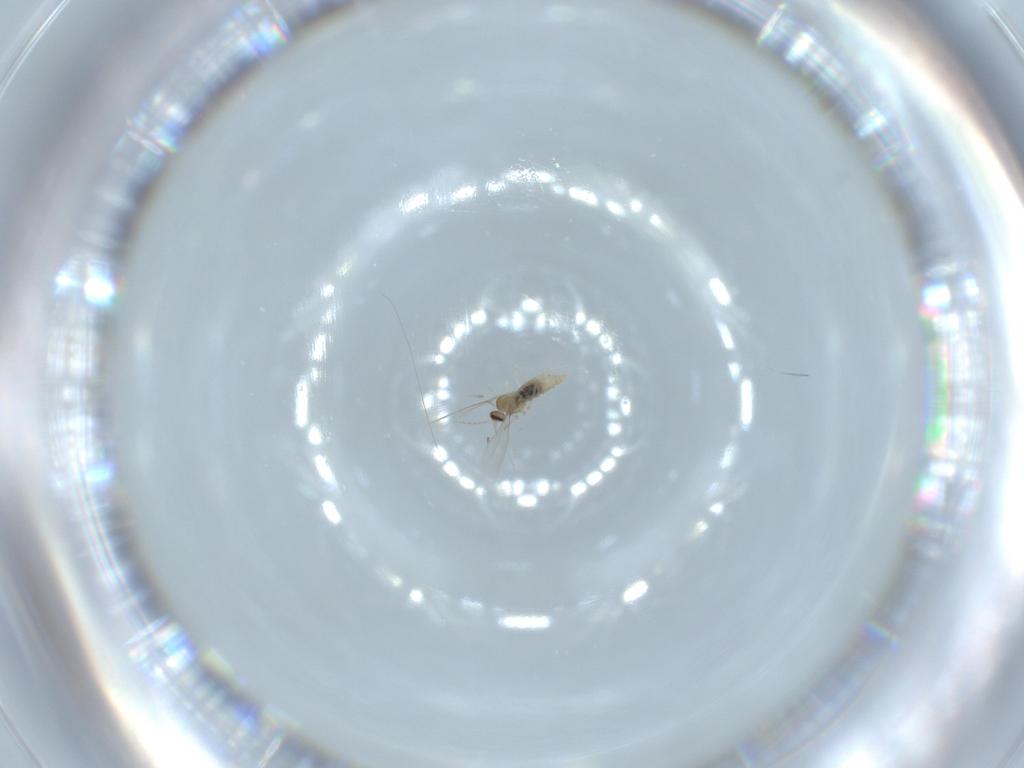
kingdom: Animalia
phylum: Arthropoda
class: Insecta
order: Diptera
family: Cecidomyiidae
